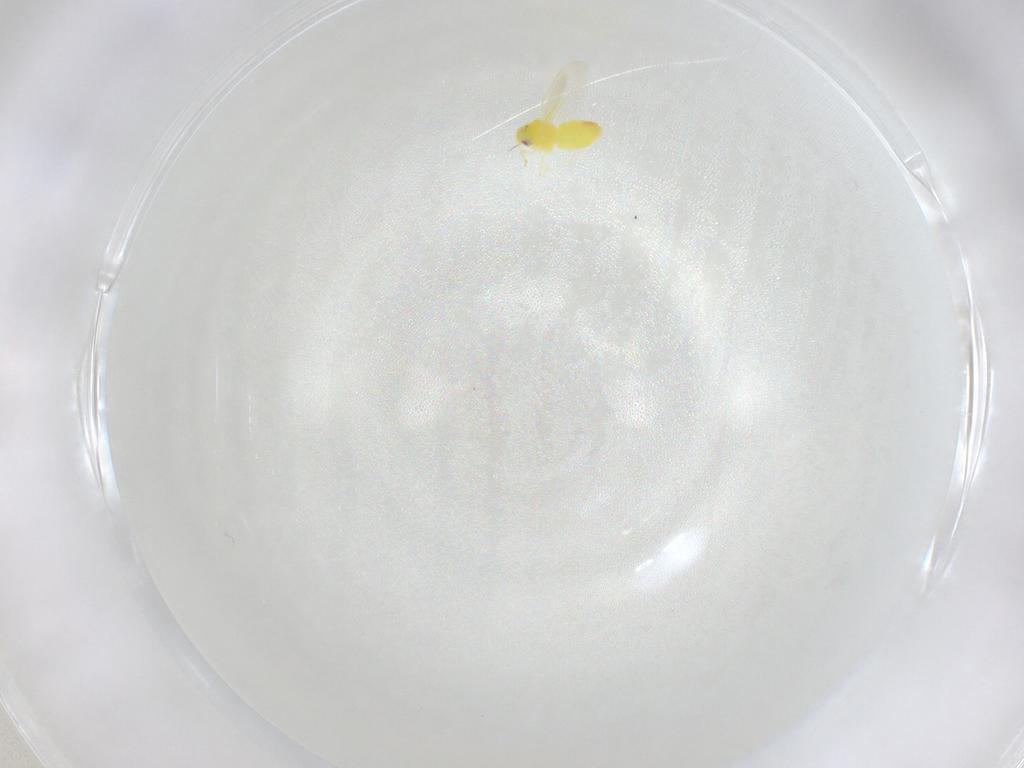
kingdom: Animalia
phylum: Arthropoda
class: Insecta
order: Hemiptera
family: Aleyrodidae
